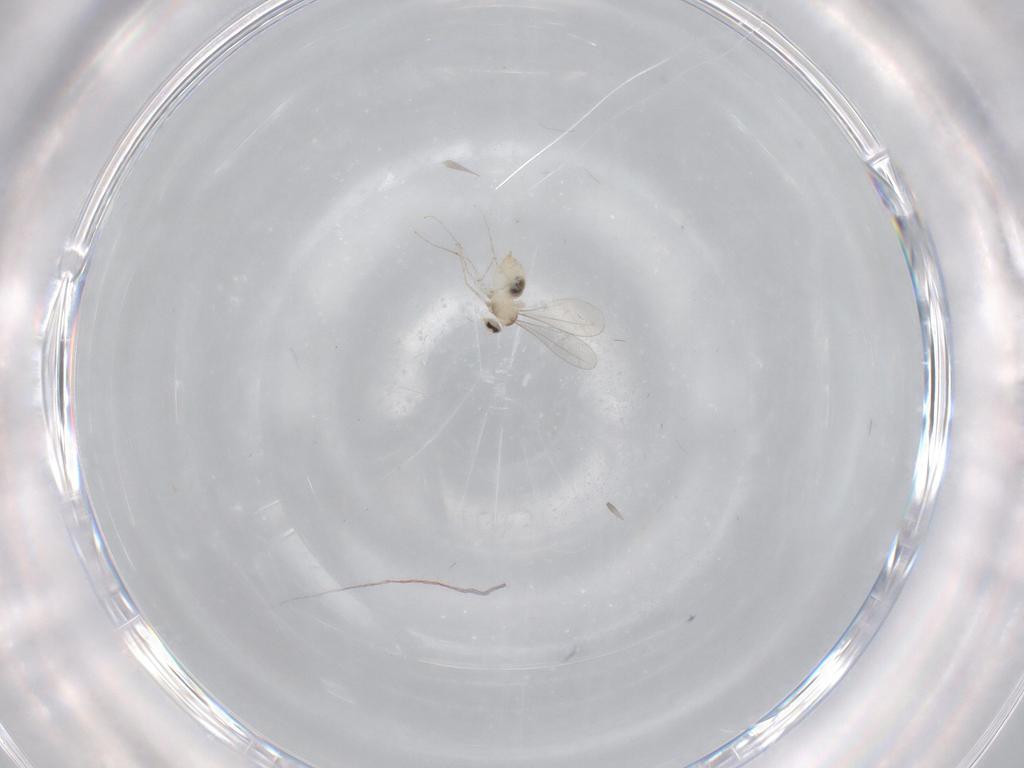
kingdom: Animalia
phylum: Arthropoda
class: Insecta
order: Diptera
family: Cecidomyiidae
